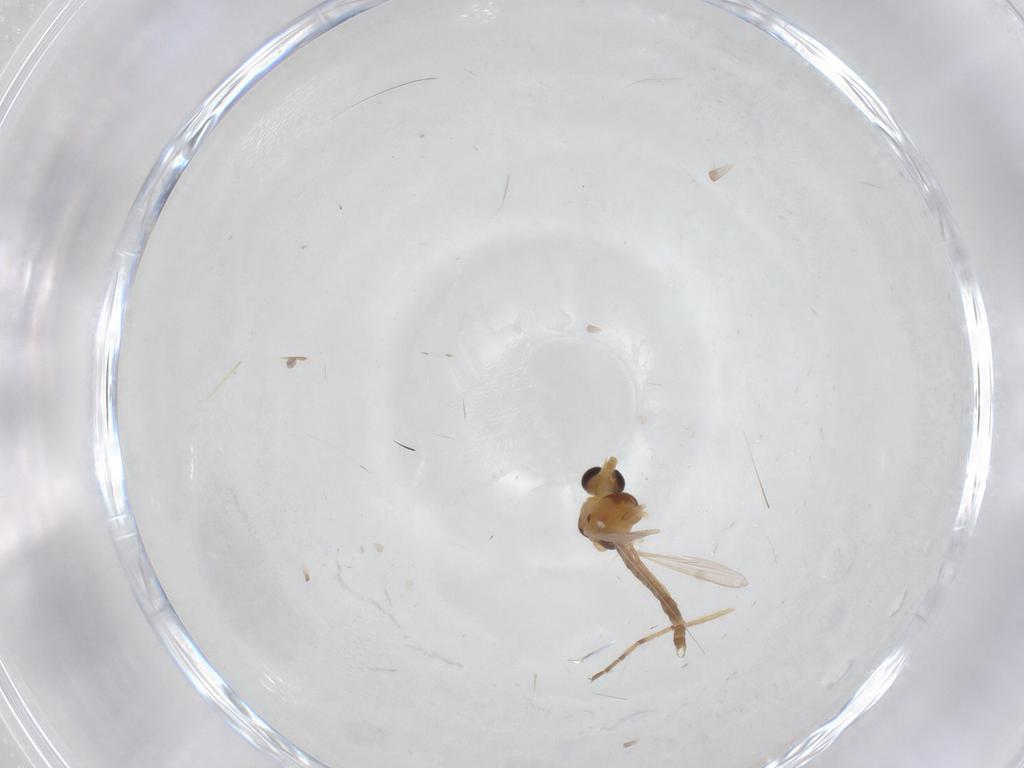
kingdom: Animalia
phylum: Arthropoda
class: Insecta
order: Diptera
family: Chironomidae
